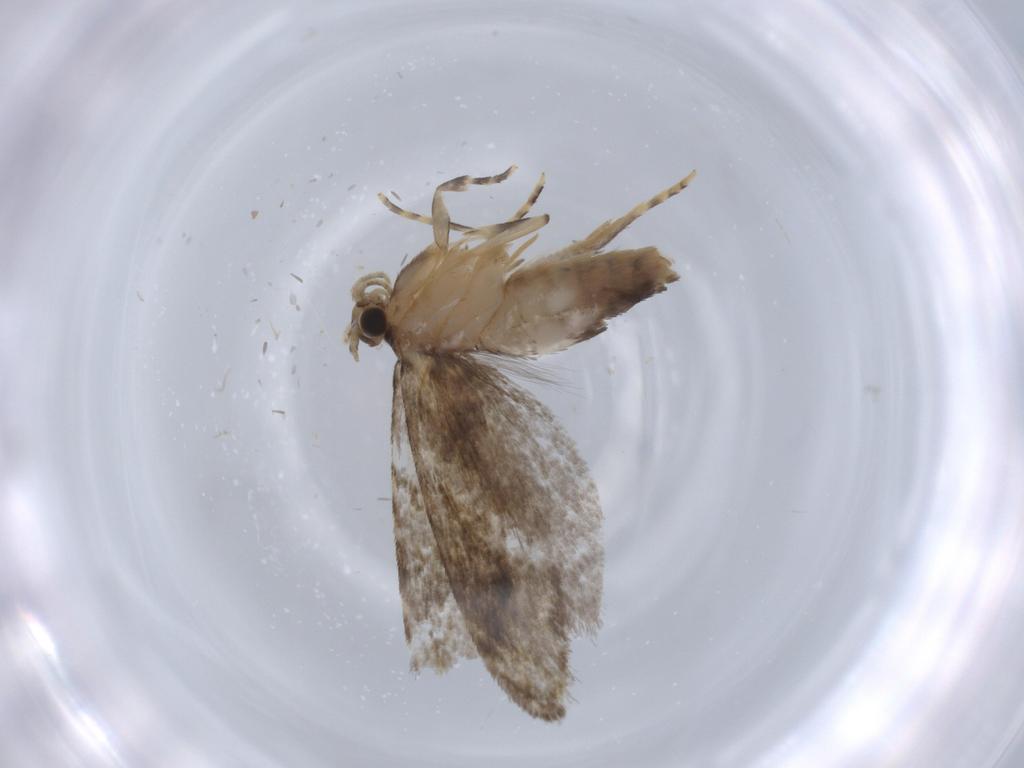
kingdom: Animalia
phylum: Arthropoda
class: Insecta
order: Lepidoptera
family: Tineidae
